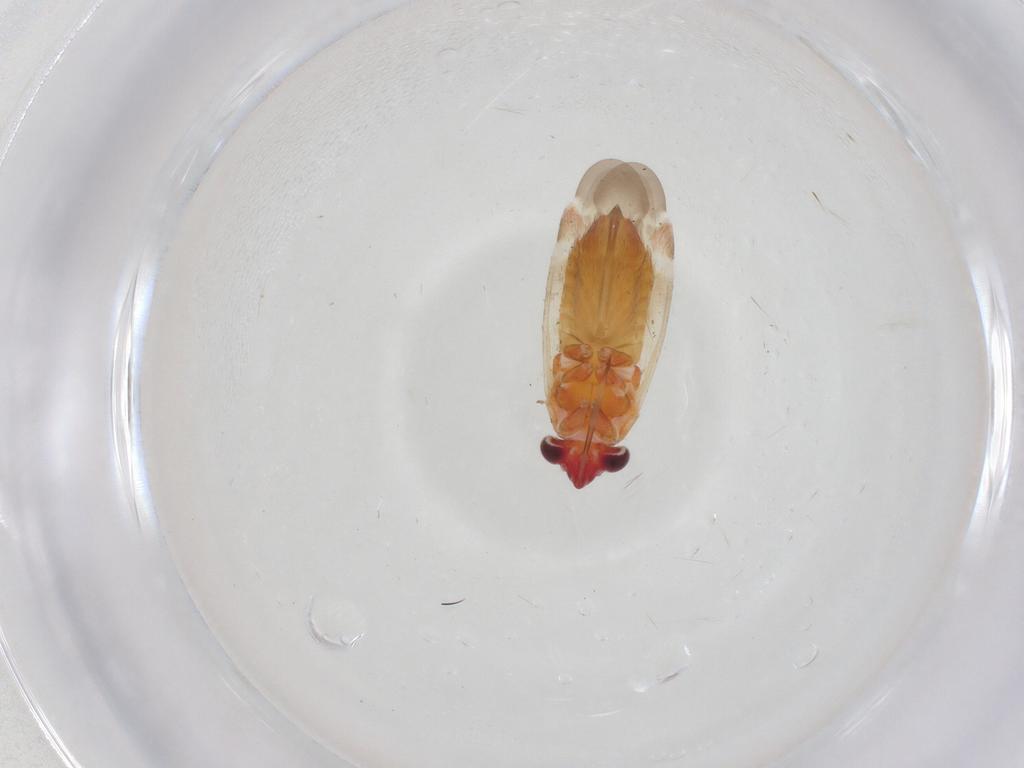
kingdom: Animalia
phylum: Arthropoda
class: Insecta
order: Hemiptera
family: Miridae
